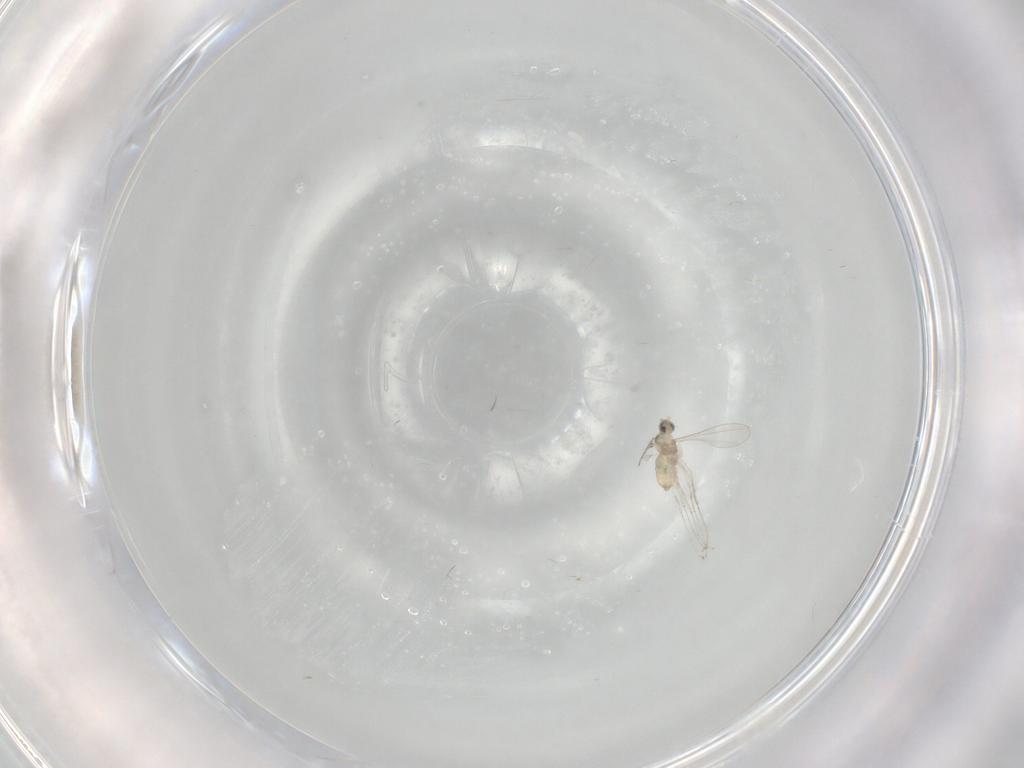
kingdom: Animalia
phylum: Arthropoda
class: Insecta
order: Diptera
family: Cecidomyiidae
